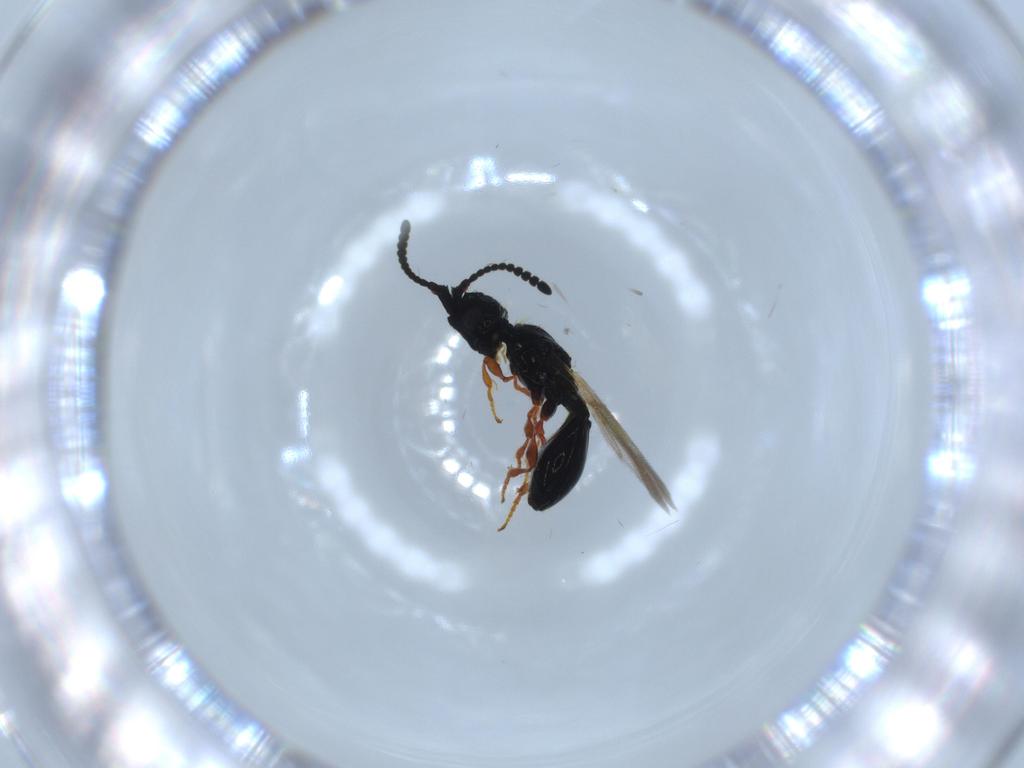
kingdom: Animalia
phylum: Arthropoda
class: Insecta
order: Hymenoptera
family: Diapriidae
